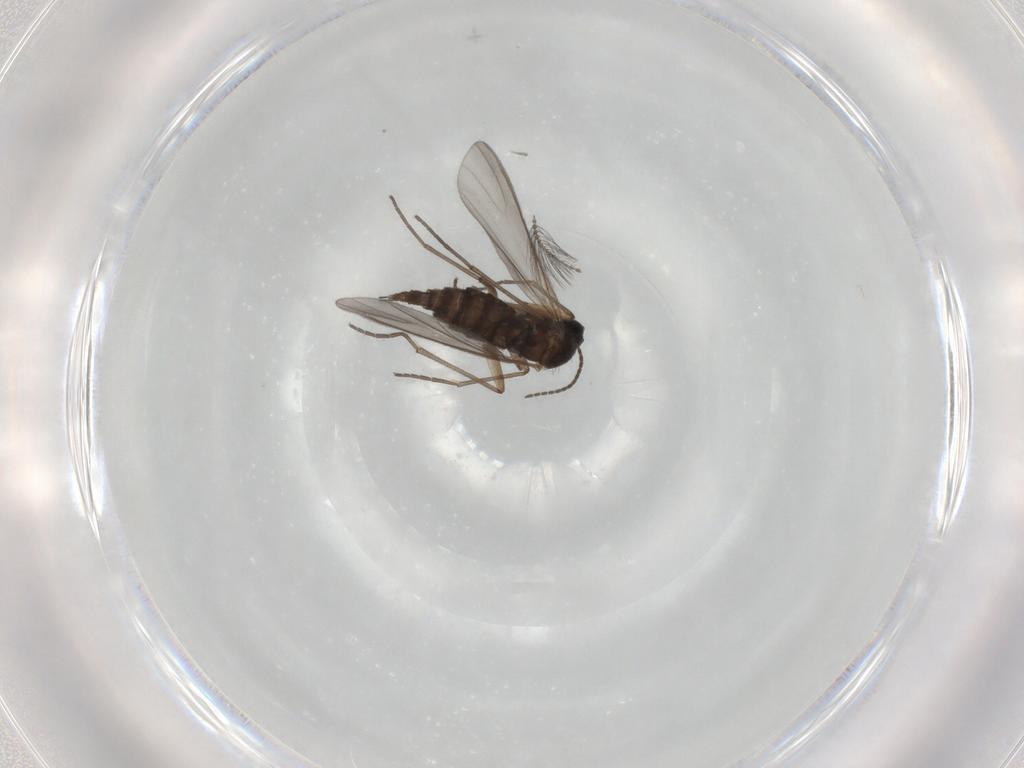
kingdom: Animalia
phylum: Arthropoda
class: Insecta
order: Diptera
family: Sciaridae
